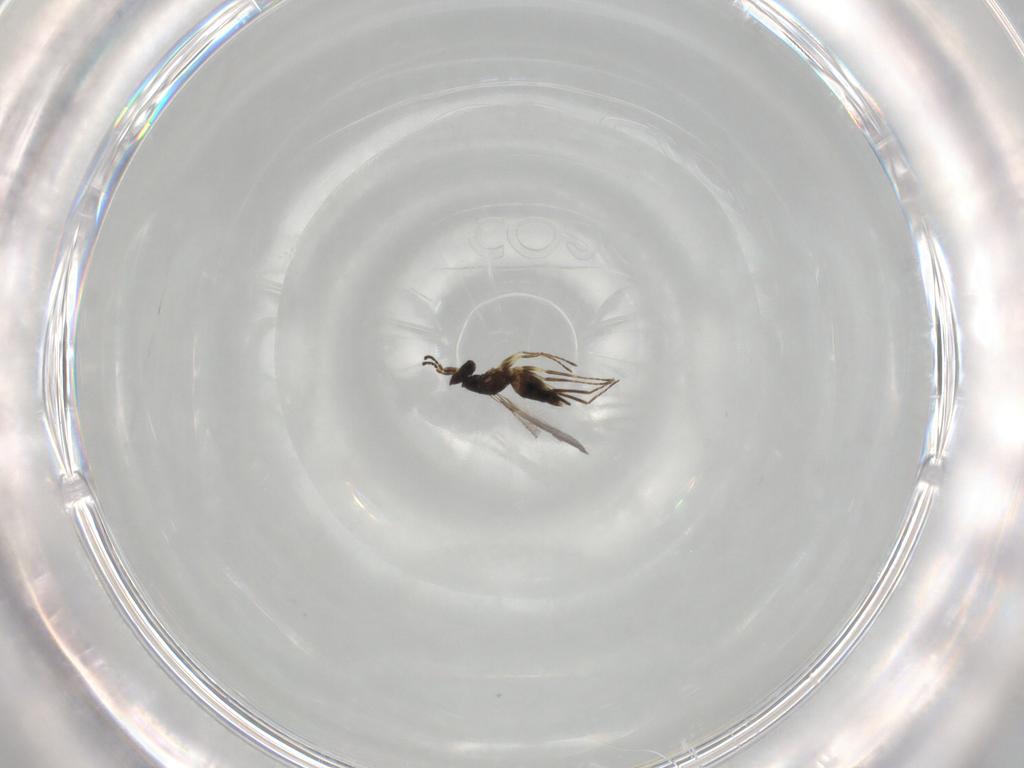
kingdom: Animalia
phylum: Arthropoda
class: Insecta
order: Hymenoptera
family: Mymaridae
